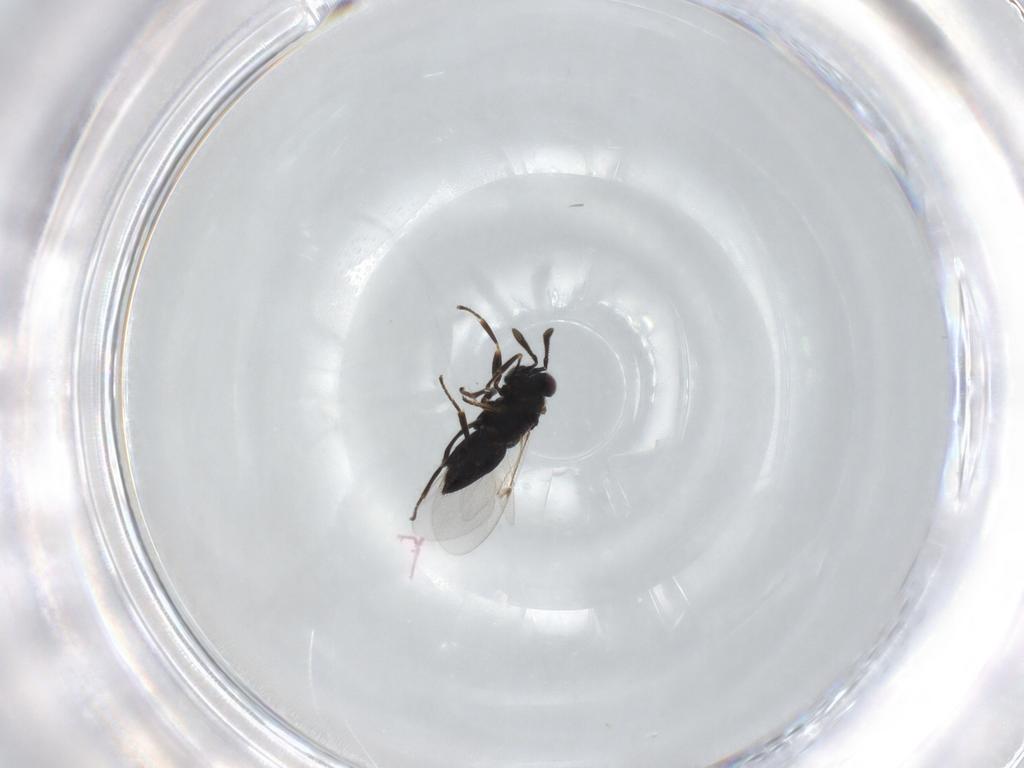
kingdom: Animalia
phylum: Arthropoda
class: Insecta
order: Hymenoptera
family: Encyrtidae
